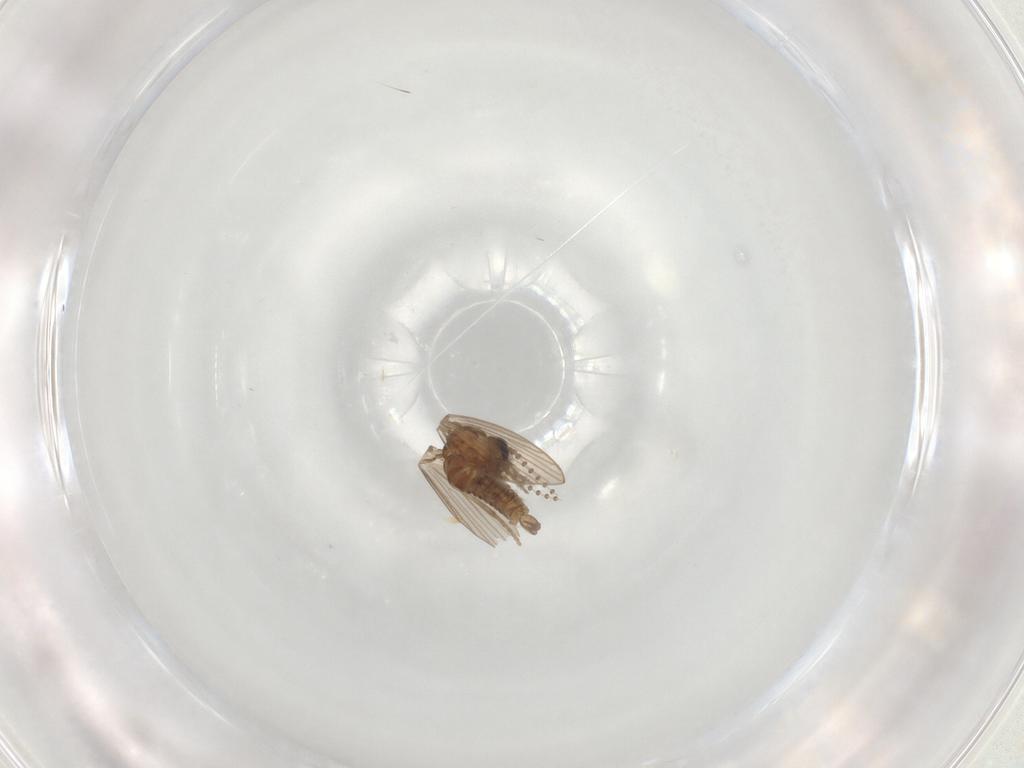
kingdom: Animalia
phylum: Arthropoda
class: Insecta
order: Diptera
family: Psychodidae
